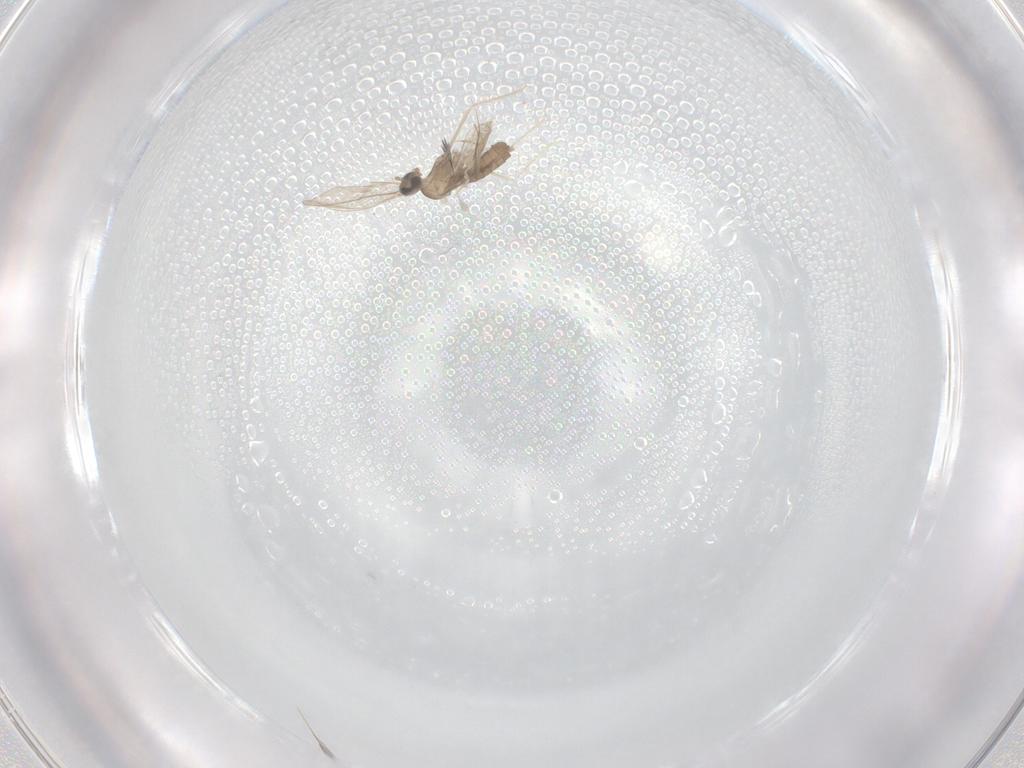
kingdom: Animalia
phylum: Arthropoda
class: Insecta
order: Diptera
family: Cecidomyiidae
